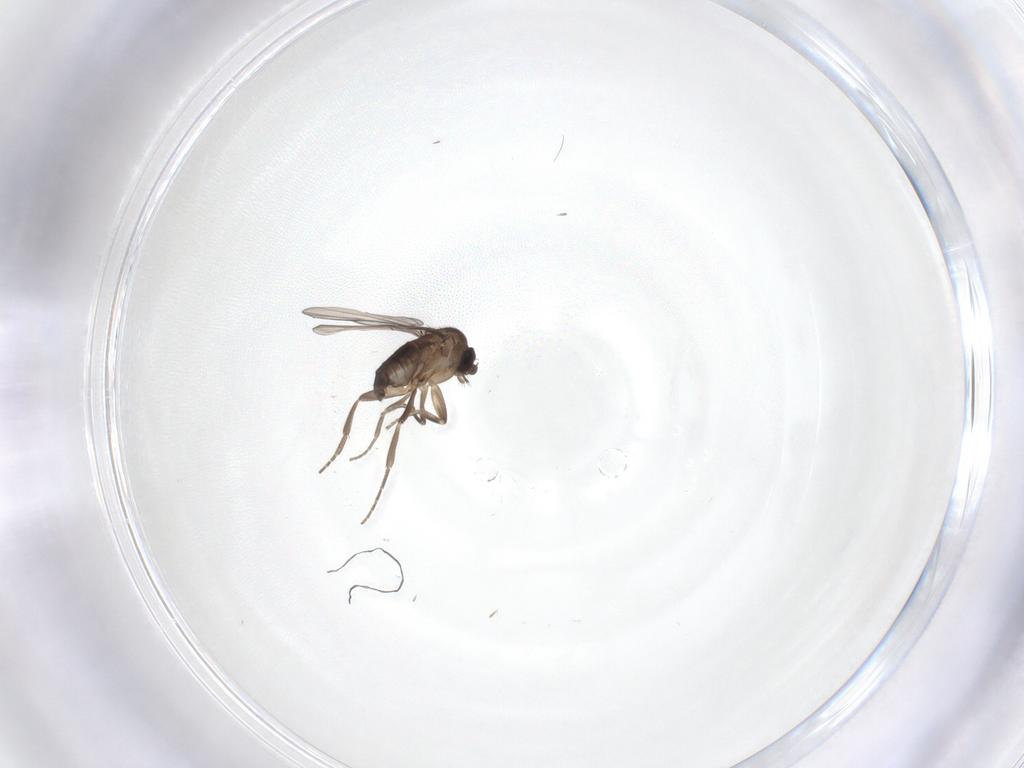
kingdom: Animalia
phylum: Arthropoda
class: Insecta
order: Diptera
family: Phoridae
